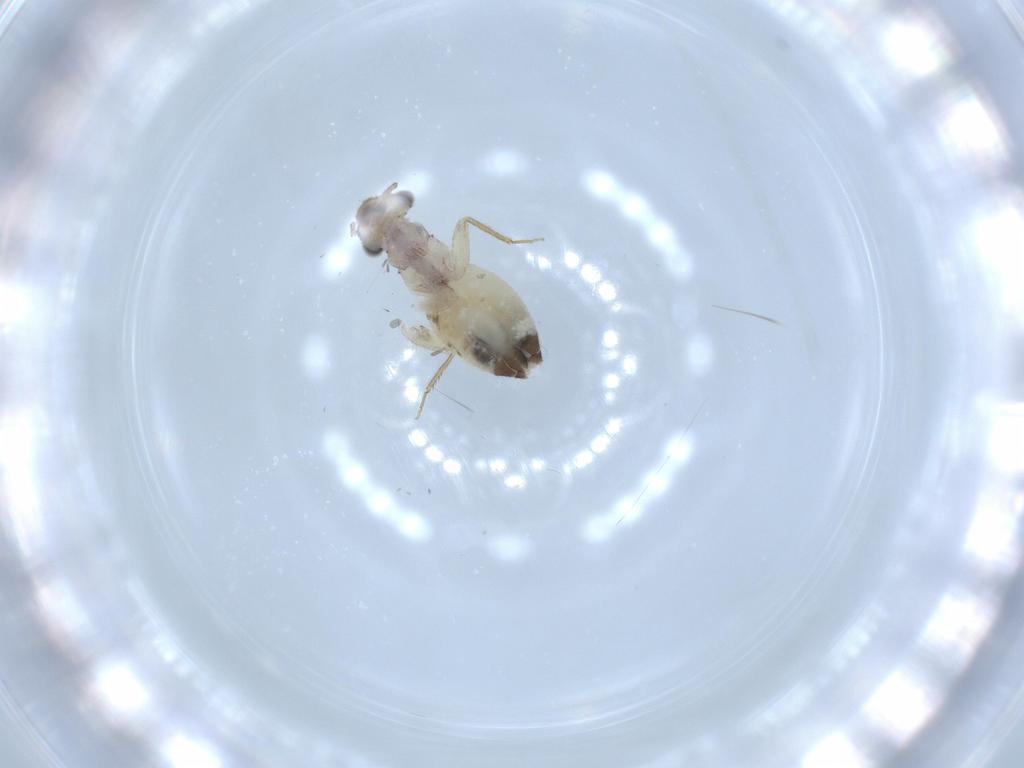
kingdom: Animalia
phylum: Arthropoda
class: Insecta
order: Psocodea
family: Lepidopsocidae
